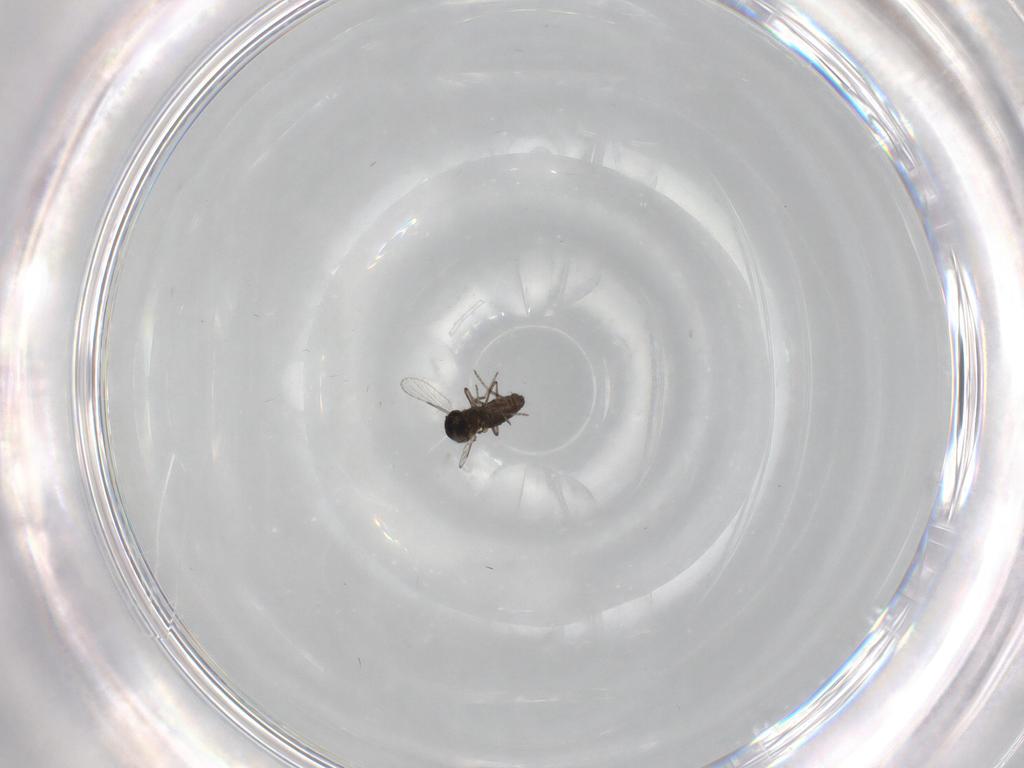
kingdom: Animalia
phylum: Arthropoda
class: Insecta
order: Diptera
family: Ceratopogonidae
